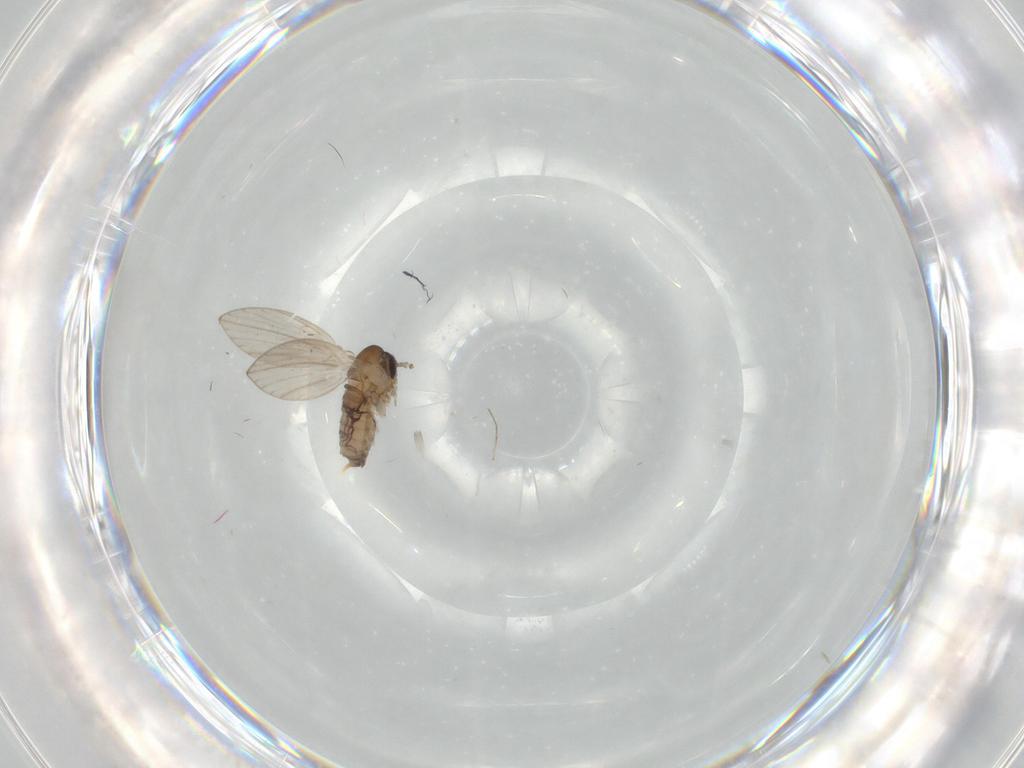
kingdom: Animalia
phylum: Arthropoda
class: Insecta
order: Diptera
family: Psychodidae
